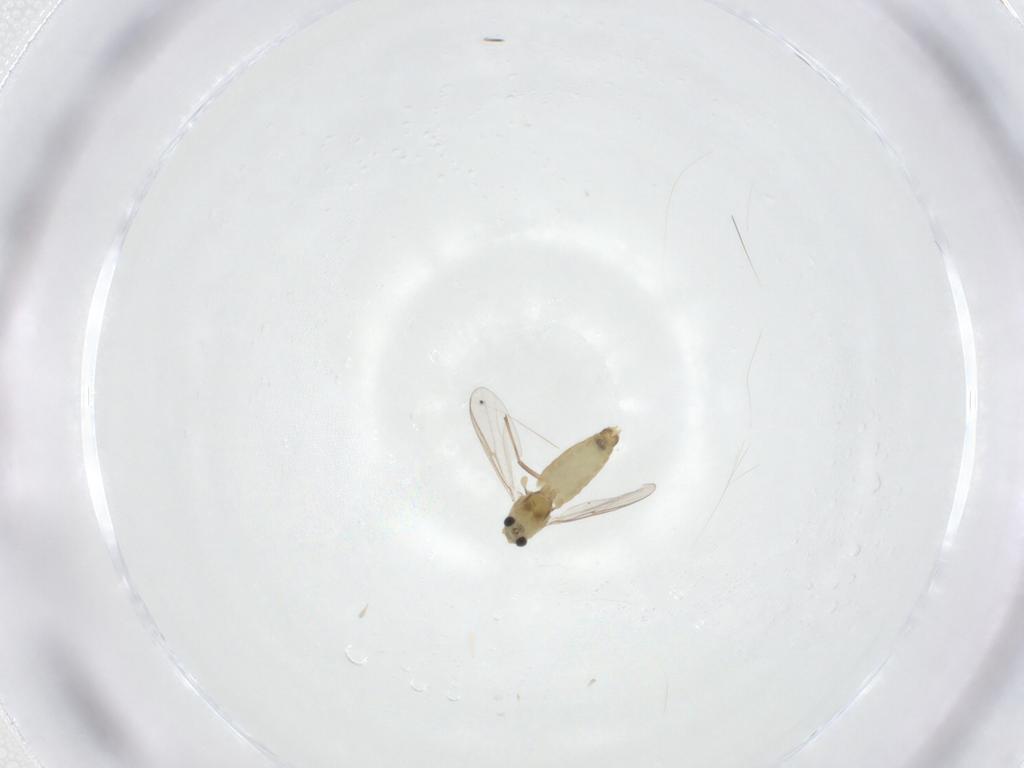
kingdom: Animalia
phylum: Arthropoda
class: Insecta
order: Diptera
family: Chironomidae
